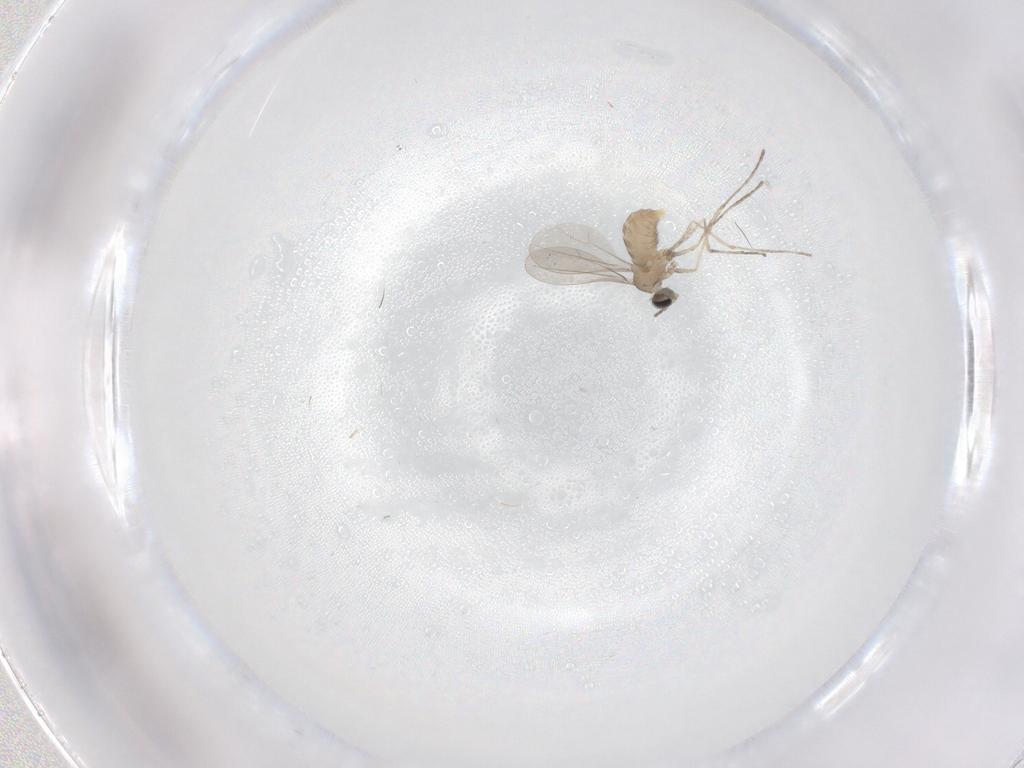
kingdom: Animalia
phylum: Arthropoda
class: Insecta
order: Diptera
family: Cecidomyiidae
